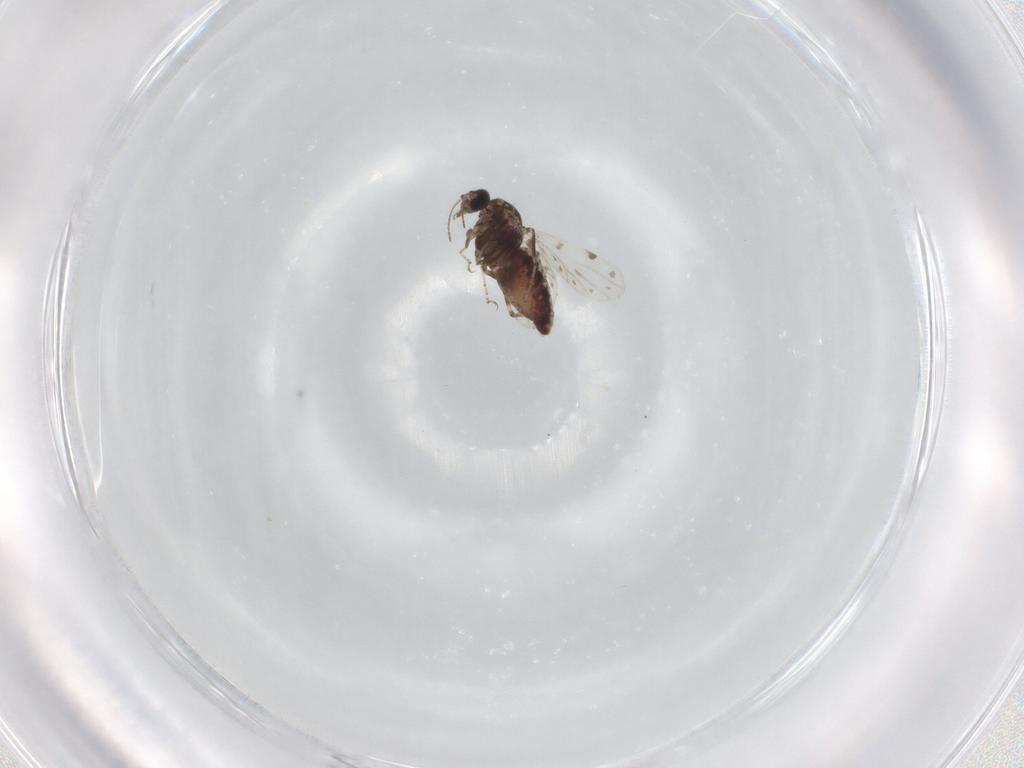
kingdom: Animalia
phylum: Arthropoda
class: Insecta
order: Diptera
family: Ceratopogonidae
